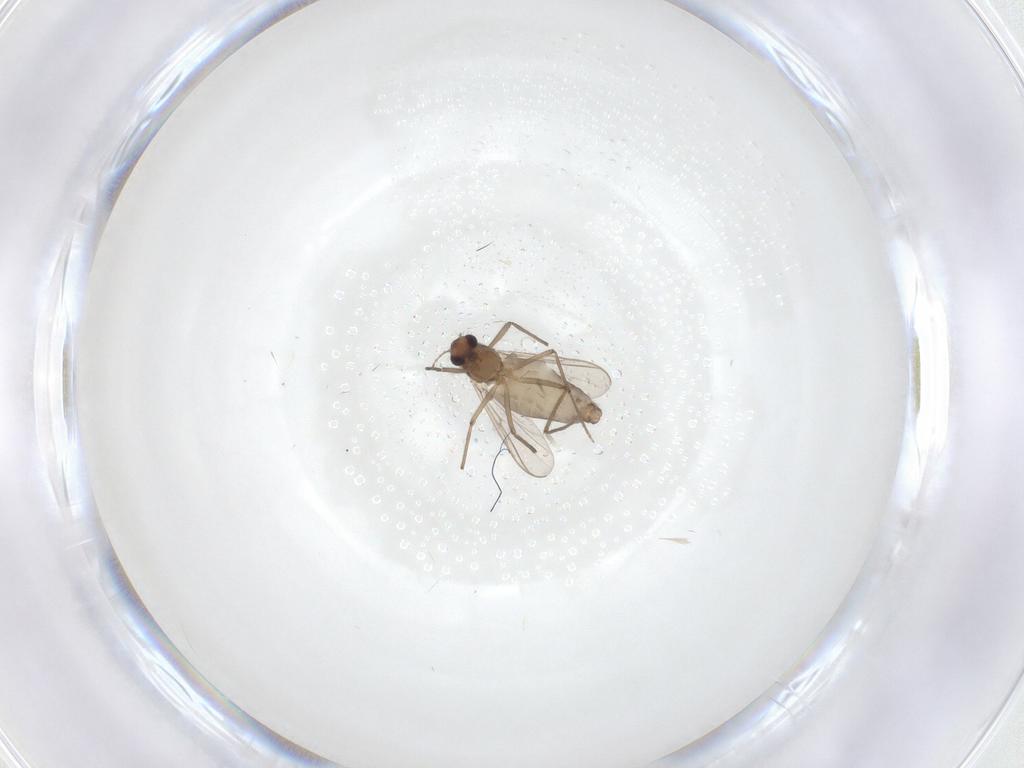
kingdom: Animalia
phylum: Arthropoda
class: Insecta
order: Diptera
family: Chironomidae
